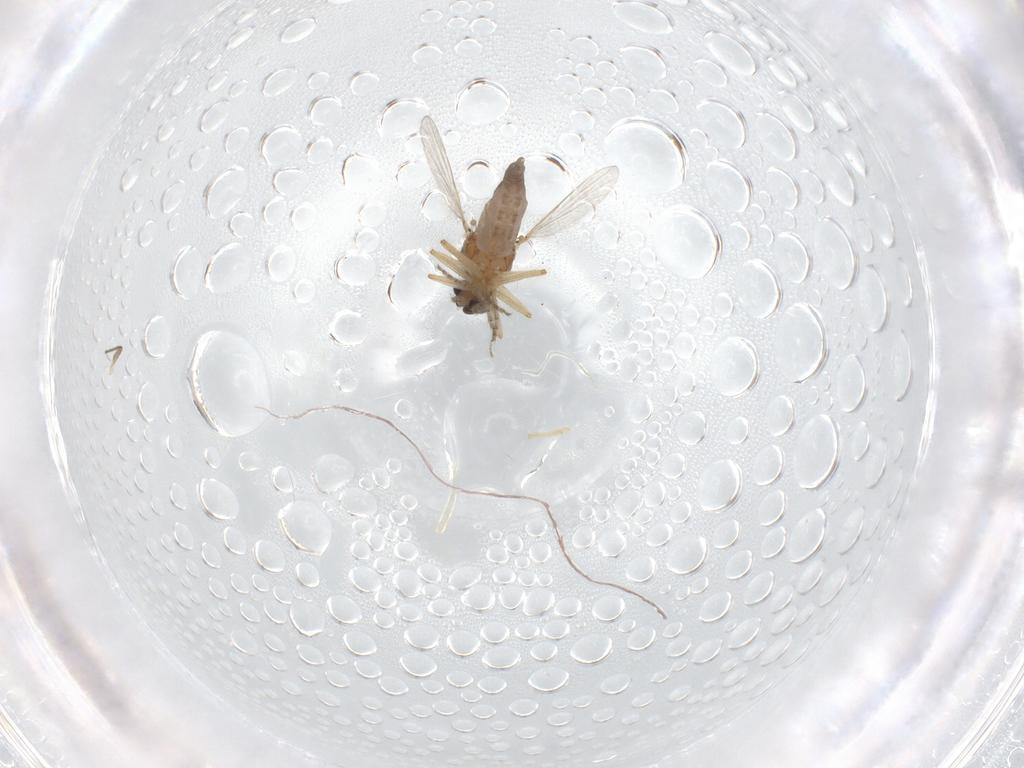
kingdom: Animalia
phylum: Arthropoda
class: Insecta
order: Diptera
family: Ceratopogonidae
